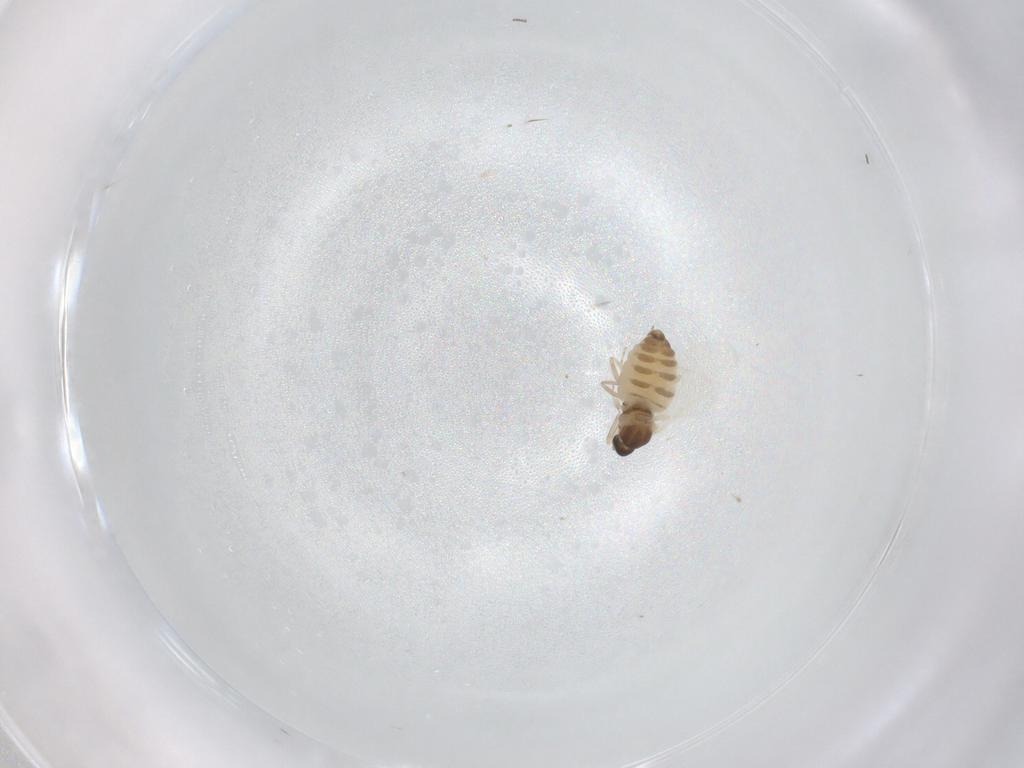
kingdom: Animalia
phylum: Arthropoda
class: Insecta
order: Diptera
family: Cecidomyiidae
